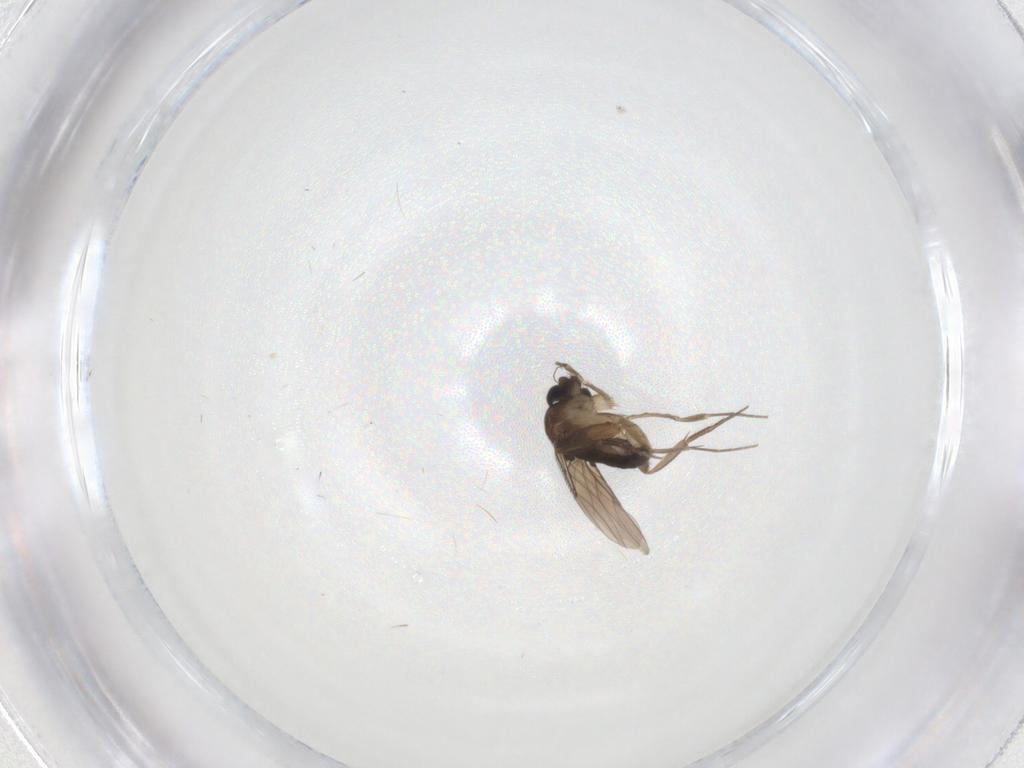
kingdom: Animalia
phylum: Arthropoda
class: Insecta
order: Diptera
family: Phoridae
